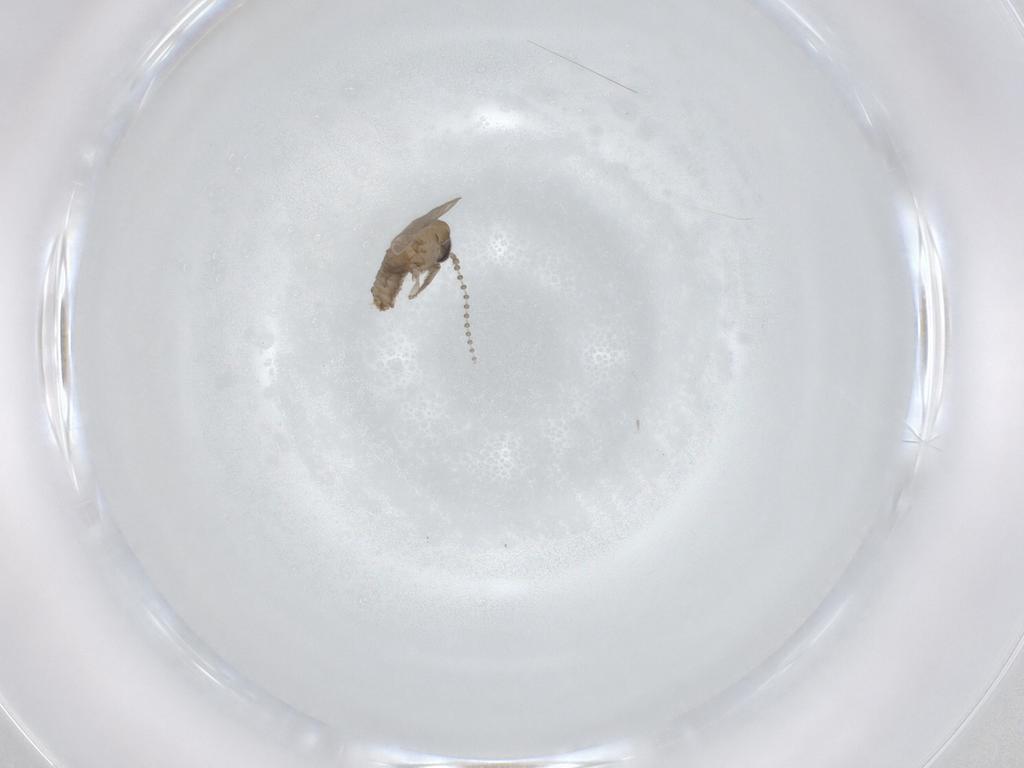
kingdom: Animalia
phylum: Arthropoda
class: Insecta
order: Diptera
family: Psychodidae
